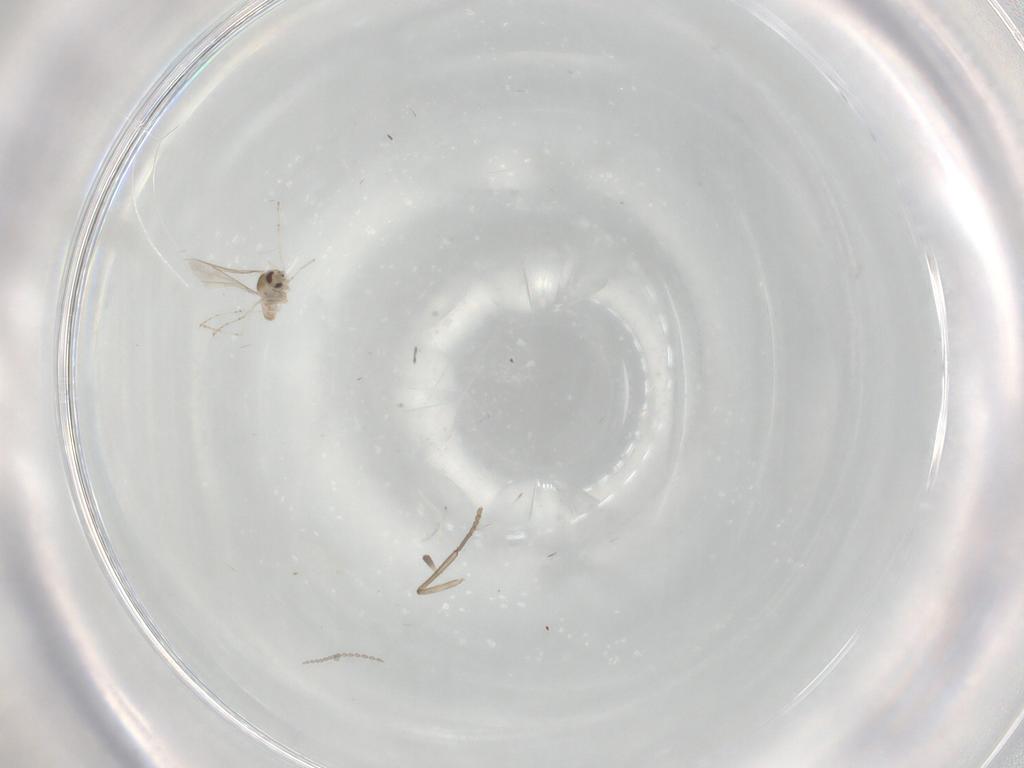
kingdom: Animalia
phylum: Arthropoda
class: Insecta
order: Diptera
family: Cecidomyiidae
